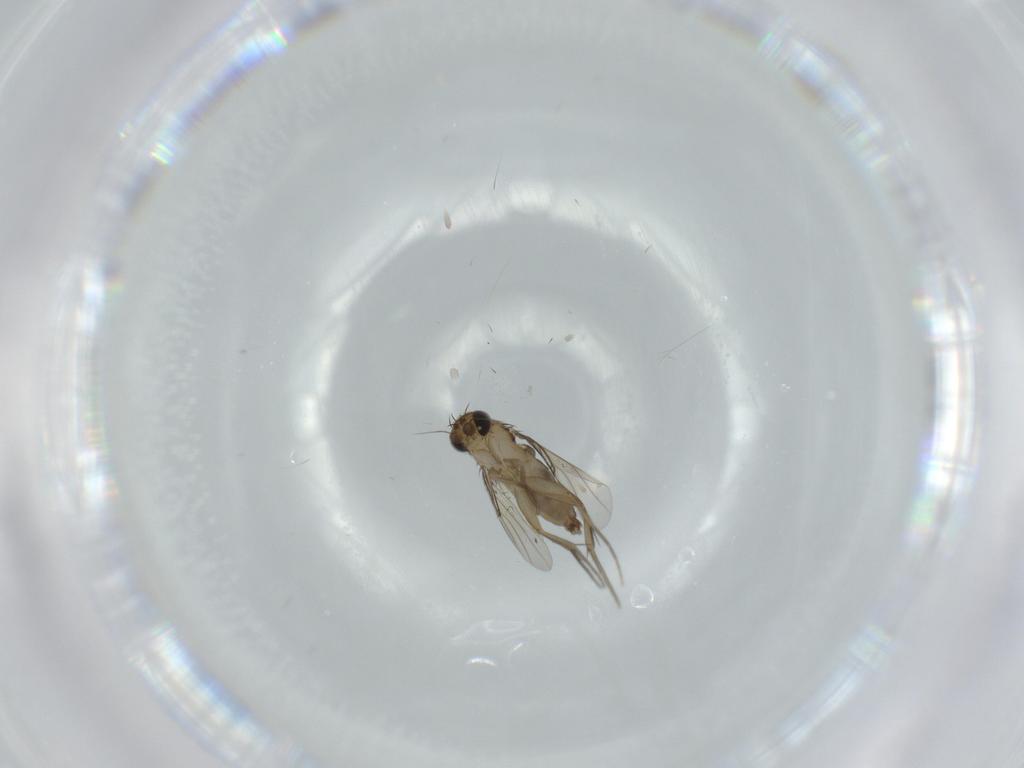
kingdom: Animalia
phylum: Arthropoda
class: Insecta
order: Diptera
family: Phoridae
